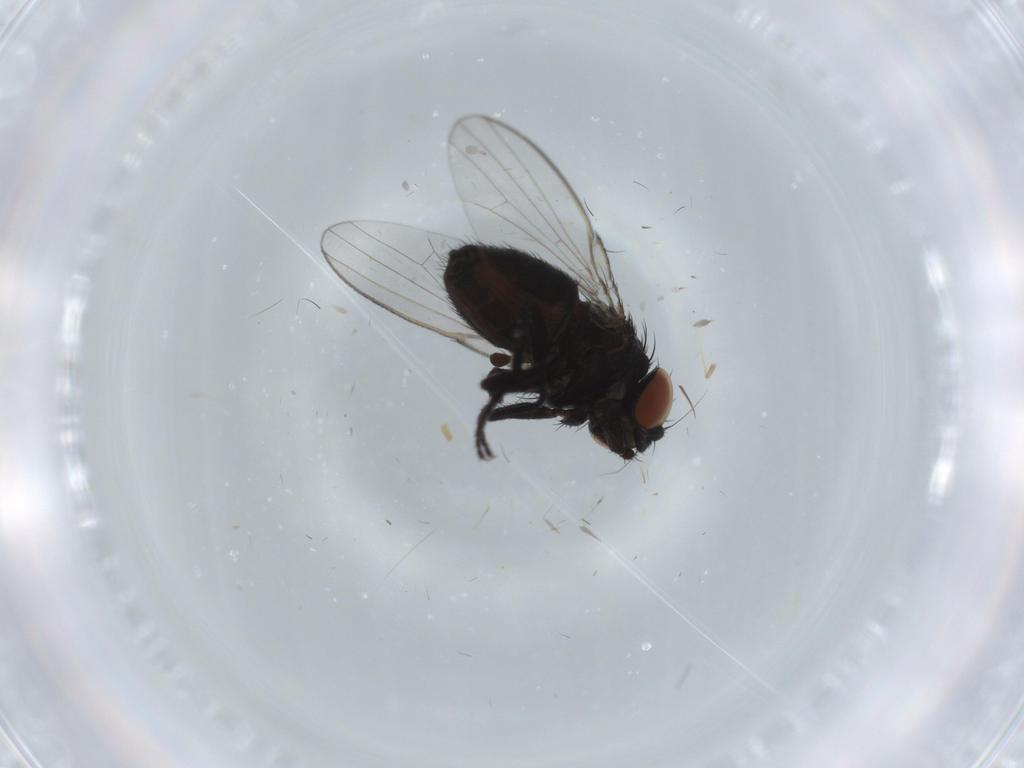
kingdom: Animalia
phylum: Arthropoda
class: Insecta
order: Diptera
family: Milichiidae
